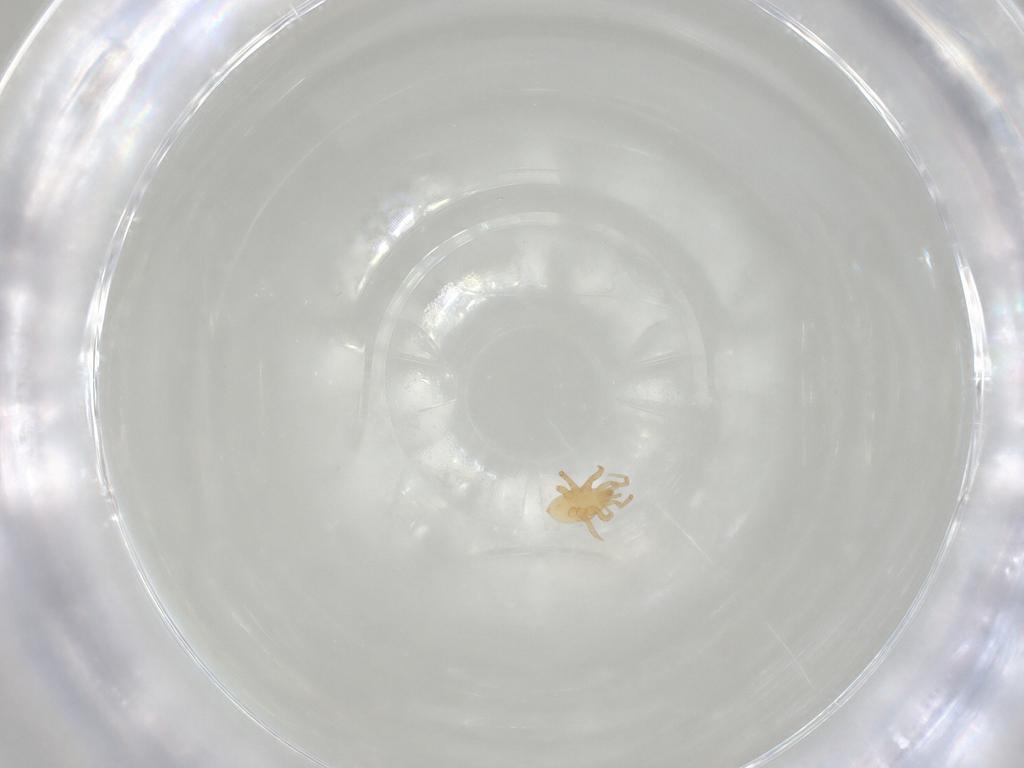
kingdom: Animalia
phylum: Arthropoda
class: Arachnida
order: Mesostigmata
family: Parasitidae
